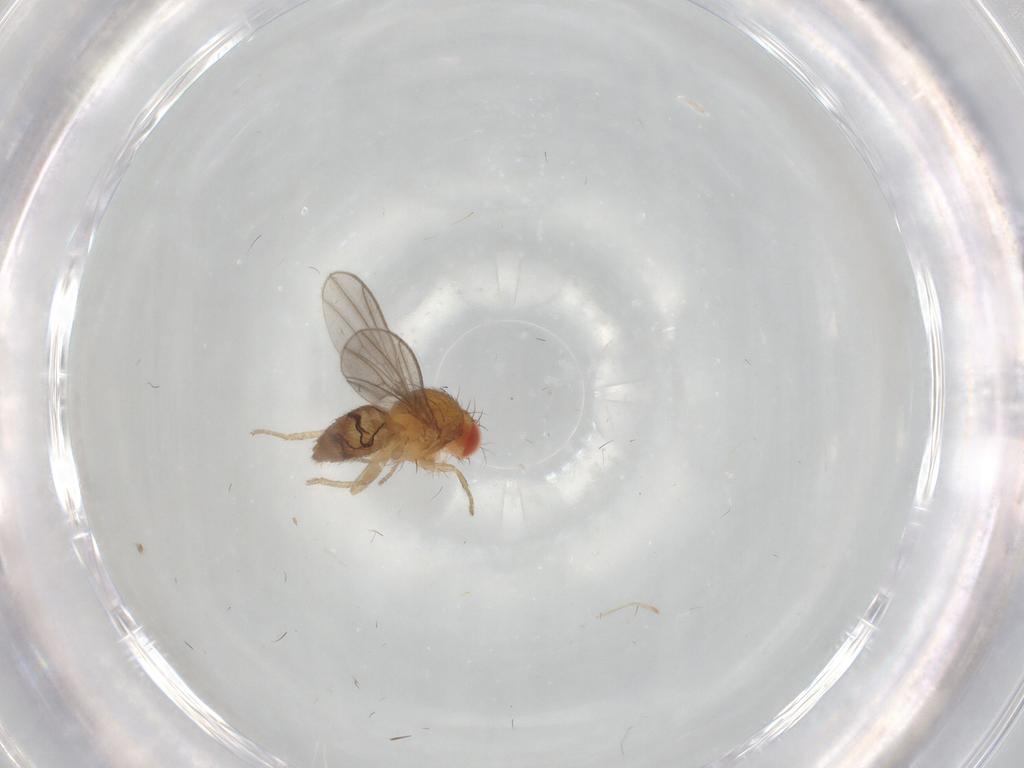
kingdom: Animalia
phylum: Arthropoda
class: Insecta
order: Diptera
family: Drosophilidae
